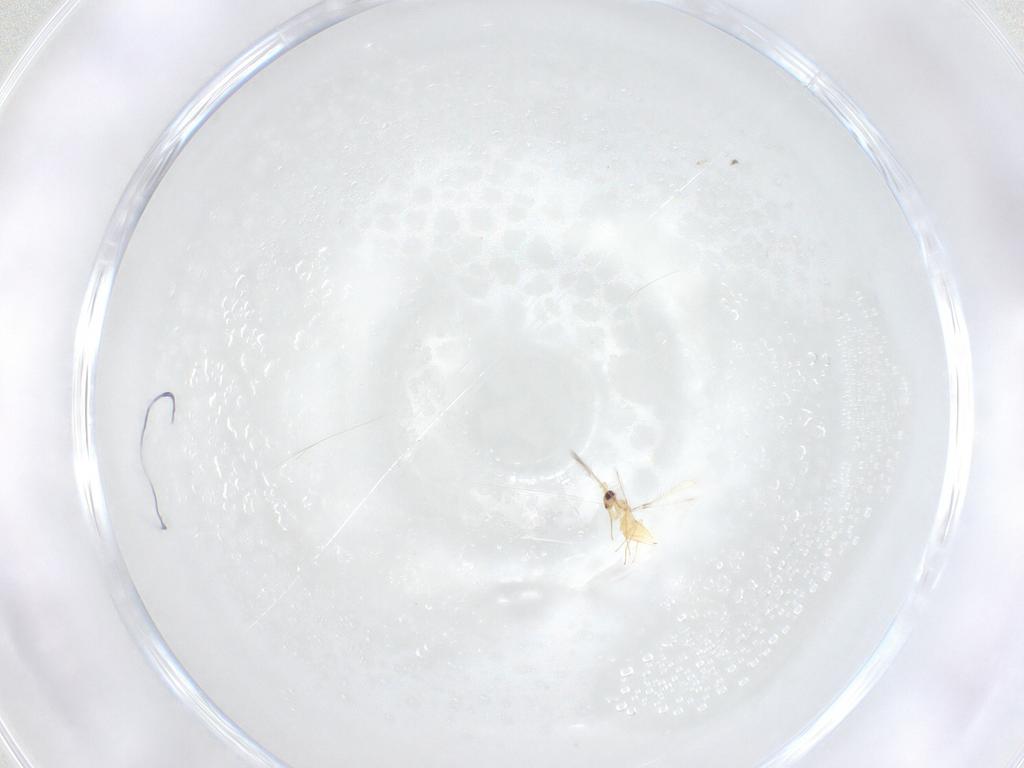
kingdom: Animalia
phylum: Arthropoda
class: Insecta
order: Hymenoptera
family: Mymaridae
